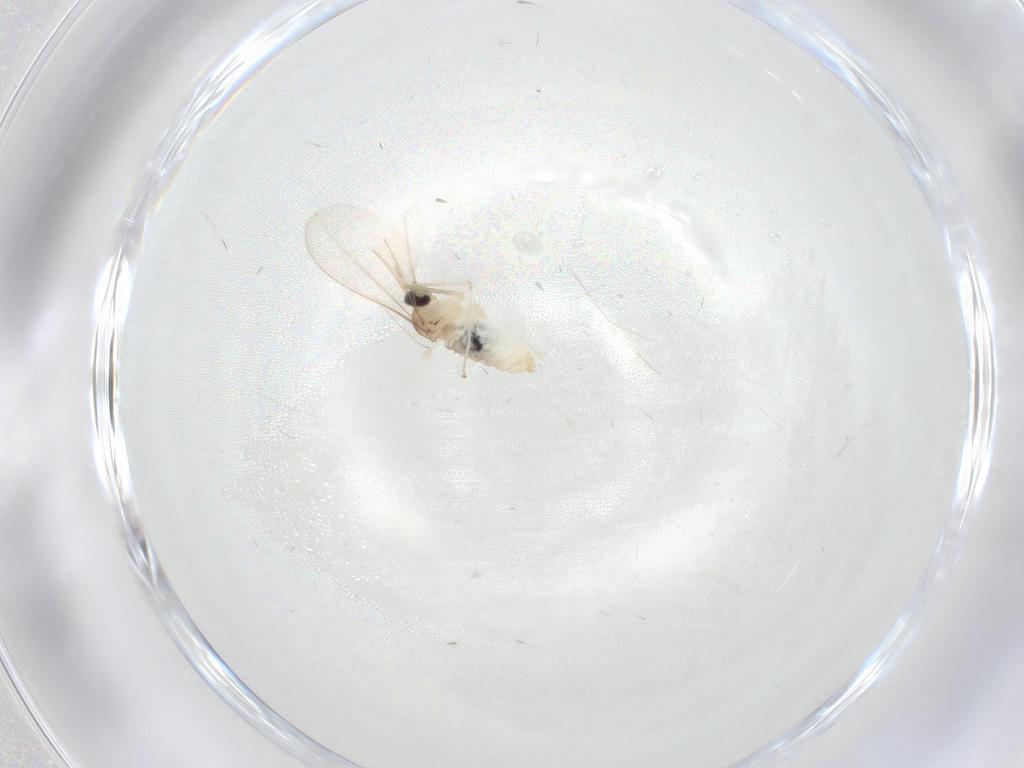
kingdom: Animalia
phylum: Arthropoda
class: Insecta
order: Diptera
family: Cecidomyiidae
